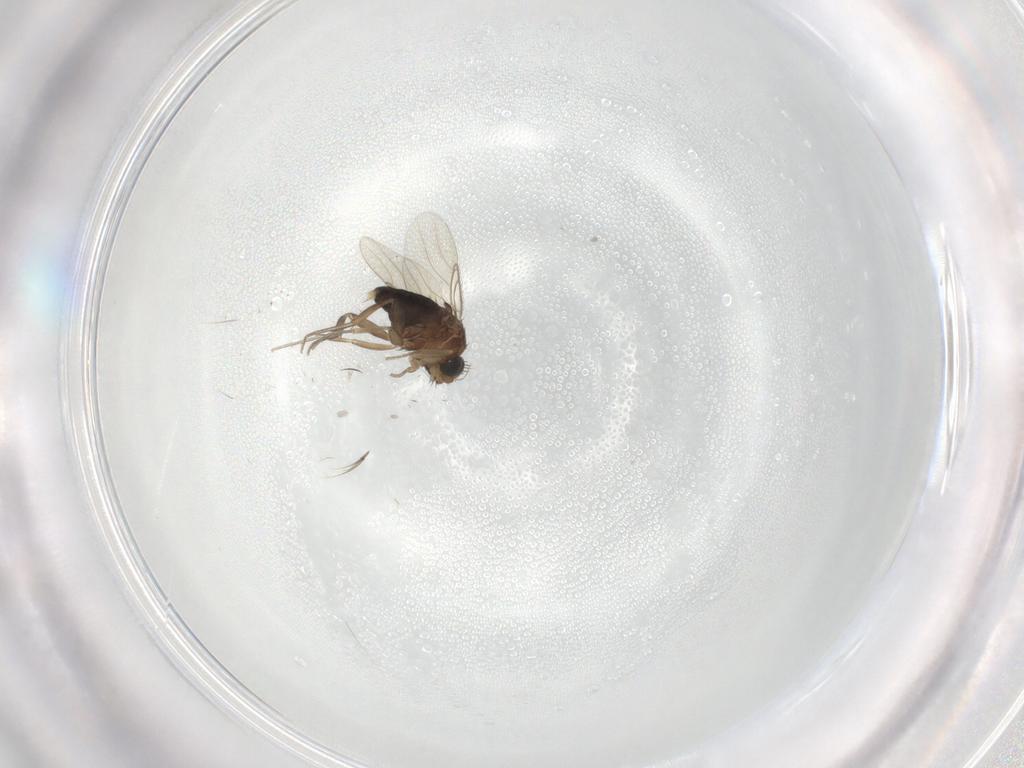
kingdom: Animalia
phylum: Arthropoda
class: Insecta
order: Diptera
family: Phoridae
